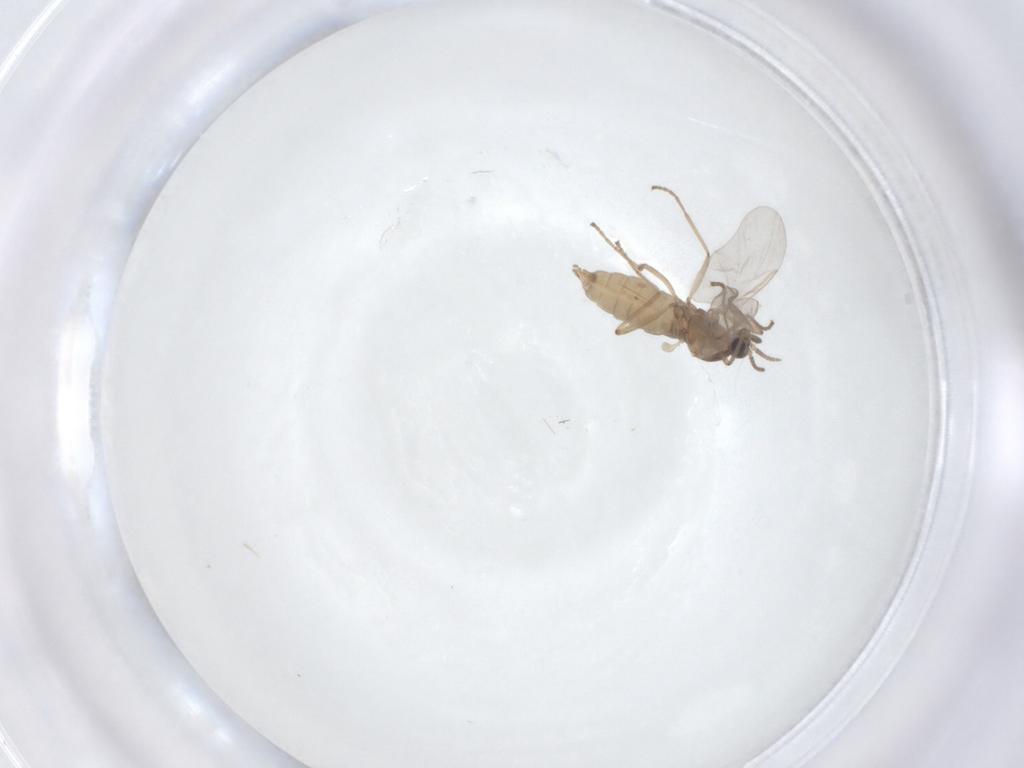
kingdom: Animalia
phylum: Arthropoda
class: Insecta
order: Diptera
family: Cecidomyiidae
